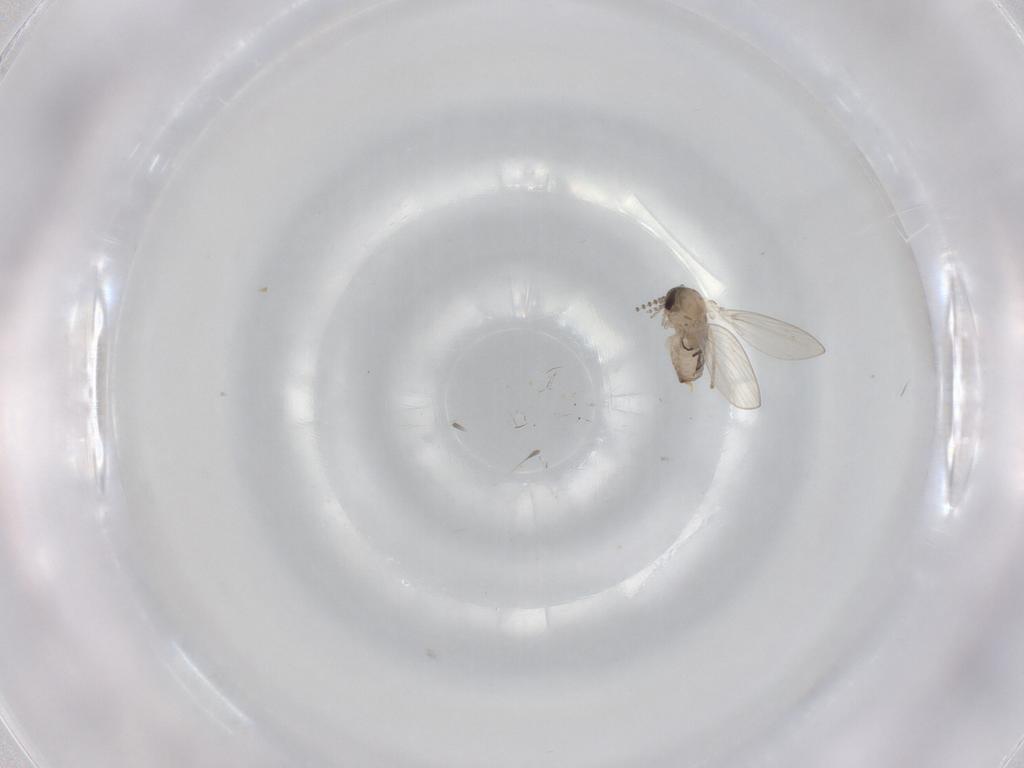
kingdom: Animalia
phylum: Arthropoda
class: Insecta
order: Diptera
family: Psychodidae
